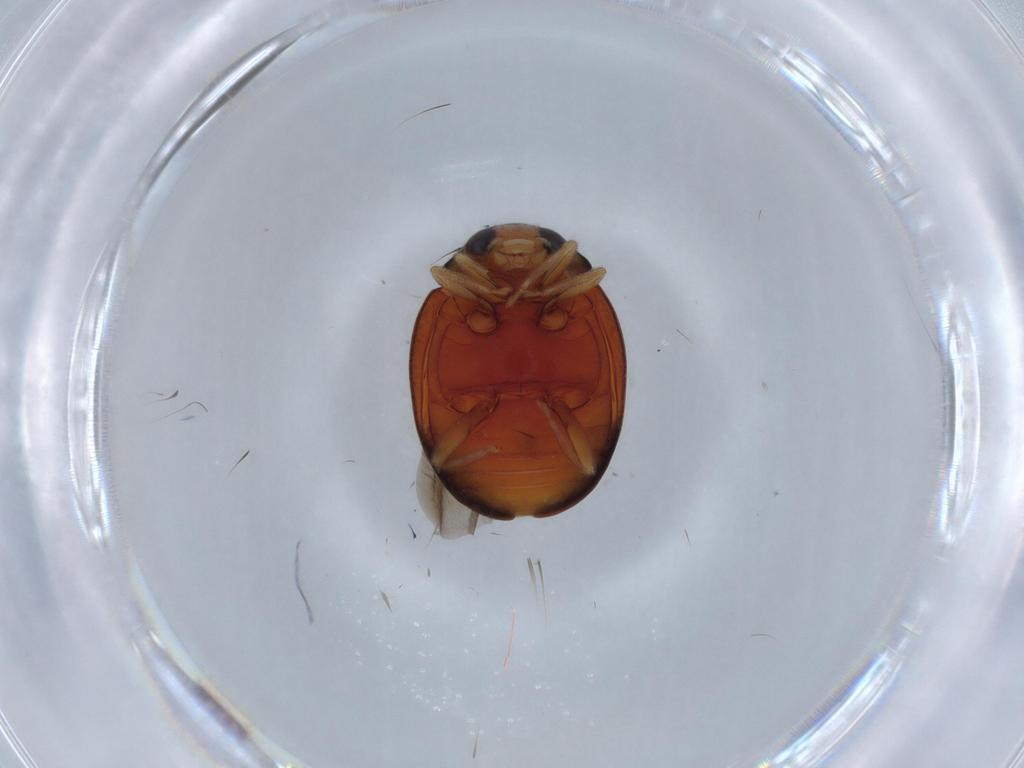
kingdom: Animalia
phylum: Arthropoda
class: Insecta
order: Coleoptera
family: Coccinellidae
